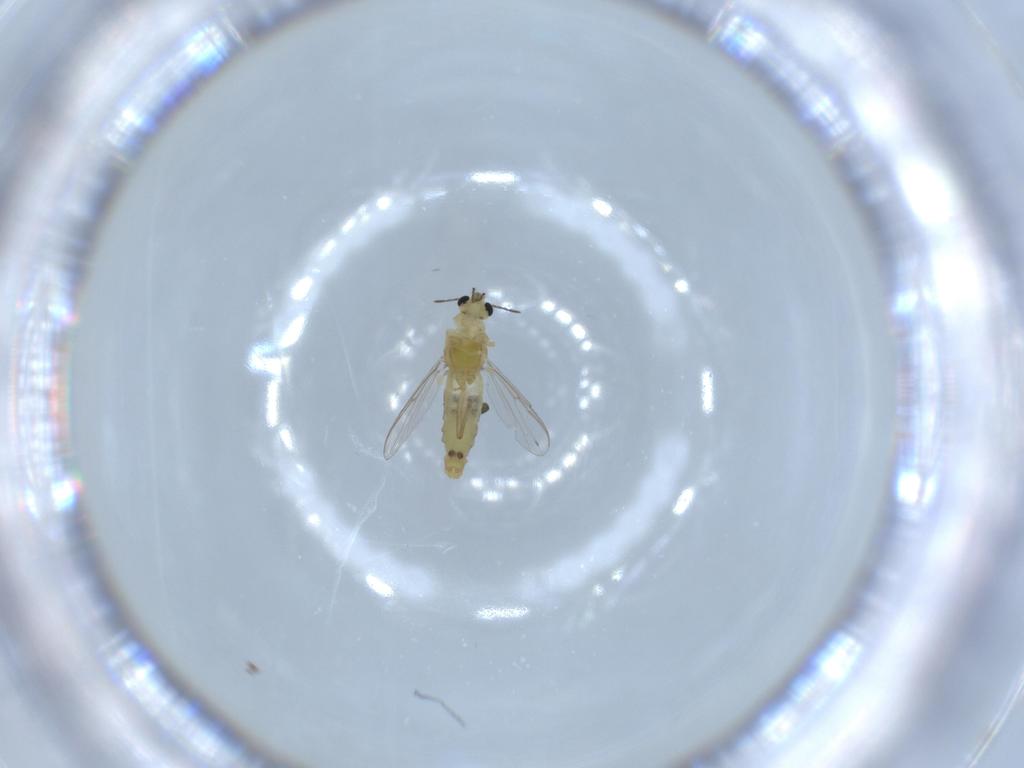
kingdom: Animalia
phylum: Arthropoda
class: Insecta
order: Diptera
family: Chironomidae
